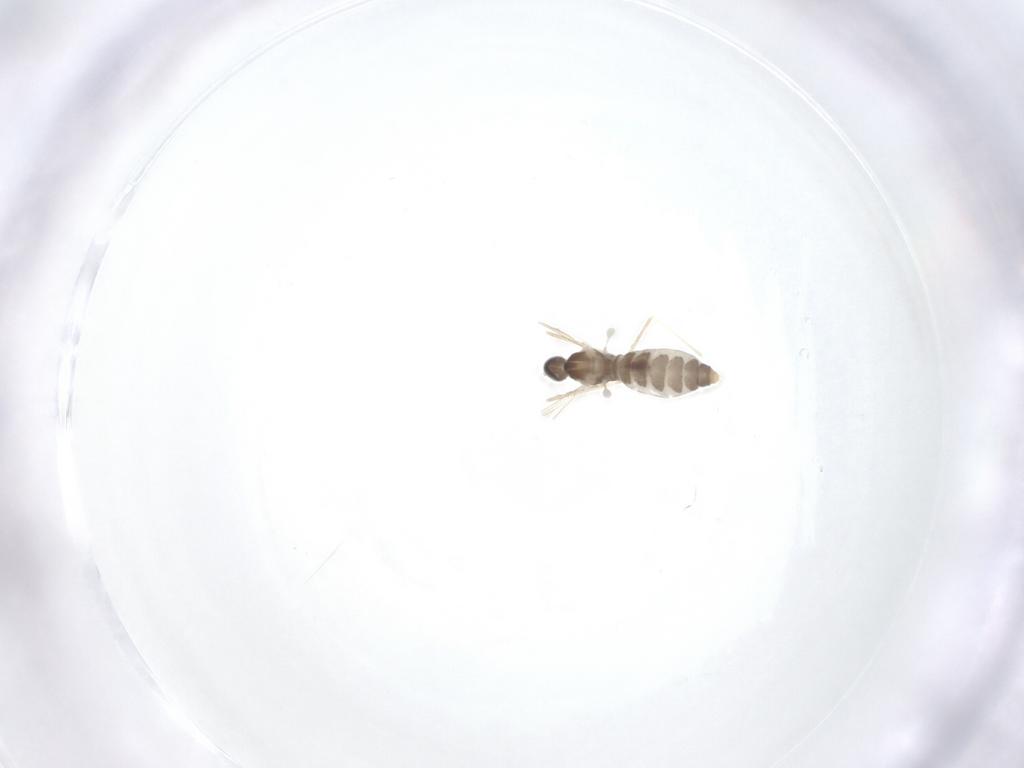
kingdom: Animalia
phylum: Arthropoda
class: Insecta
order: Diptera
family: Cecidomyiidae
